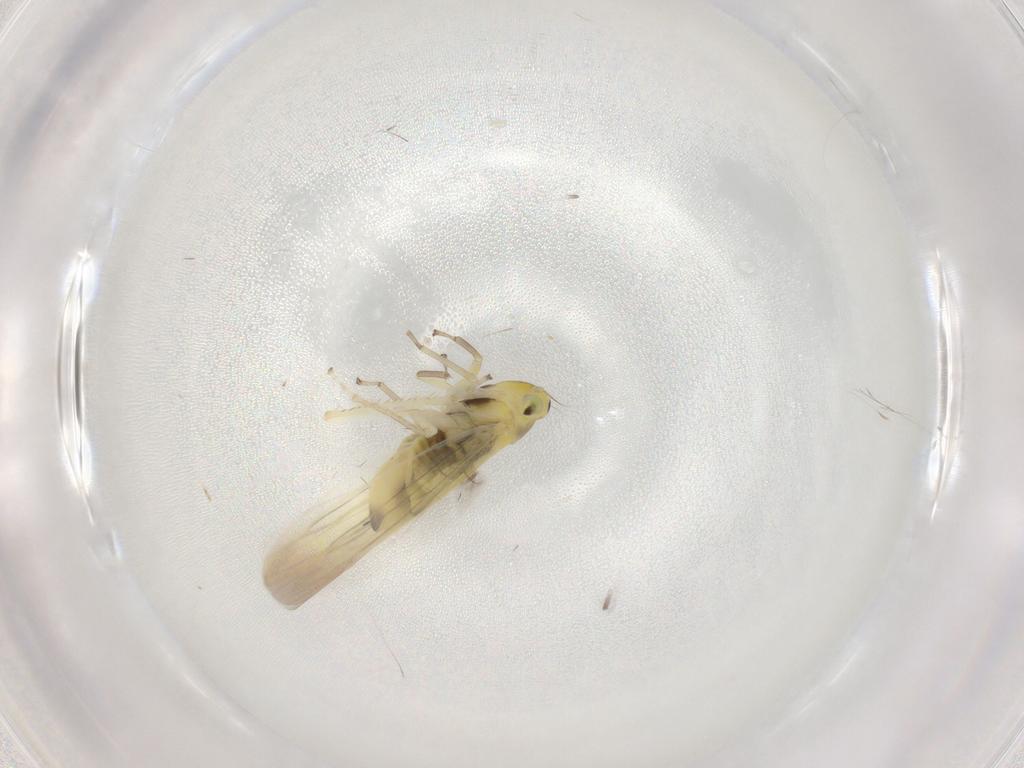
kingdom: Animalia
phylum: Arthropoda
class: Insecta
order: Hemiptera
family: Cicadellidae
